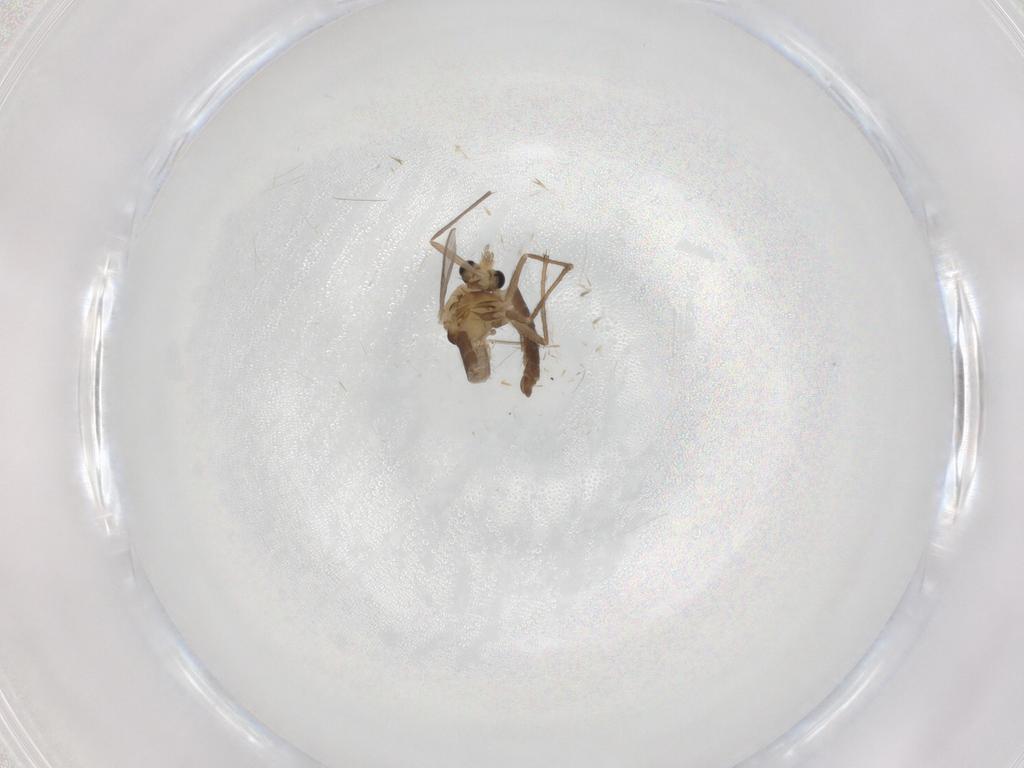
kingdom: Animalia
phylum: Arthropoda
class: Insecta
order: Diptera
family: Chironomidae
